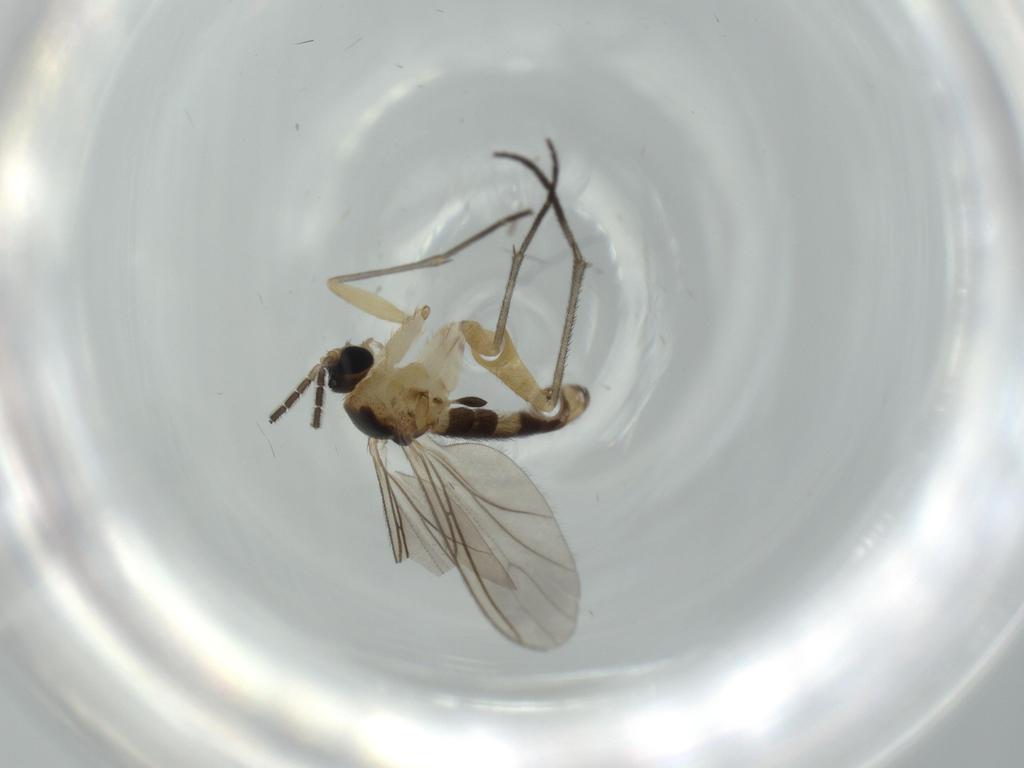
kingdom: Animalia
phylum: Arthropoda
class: Insecta
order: Diptera
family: Sciaridae
